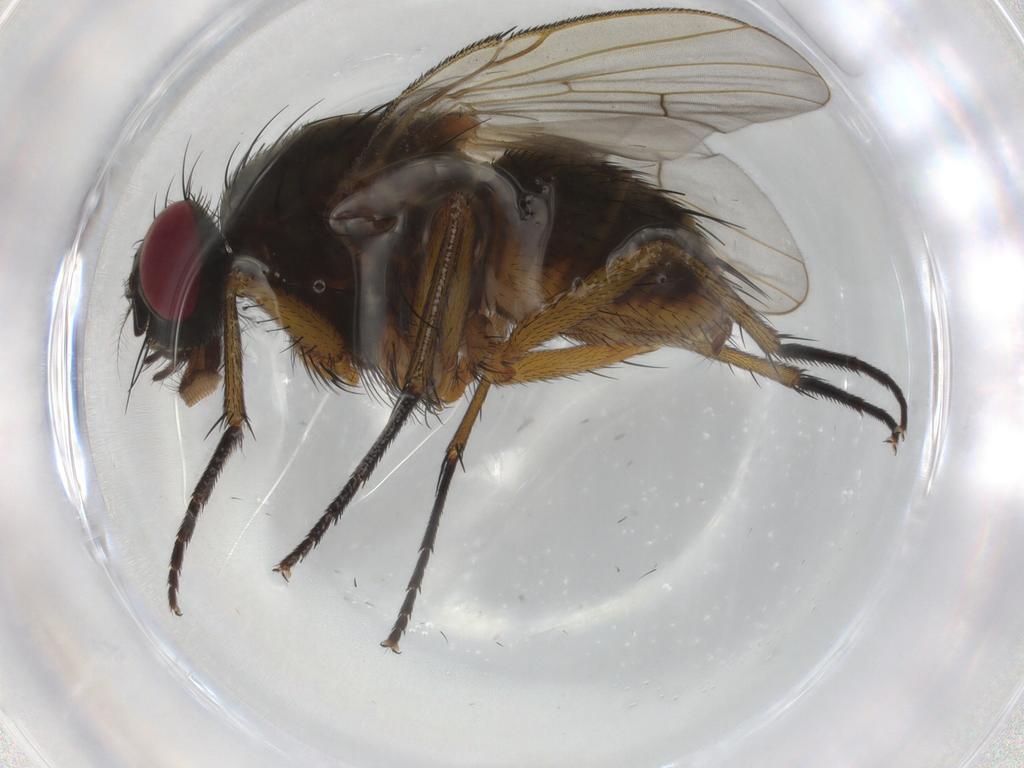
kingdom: Animalia
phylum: Arthropoda
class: Insecta
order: Diptera
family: Muscidae
